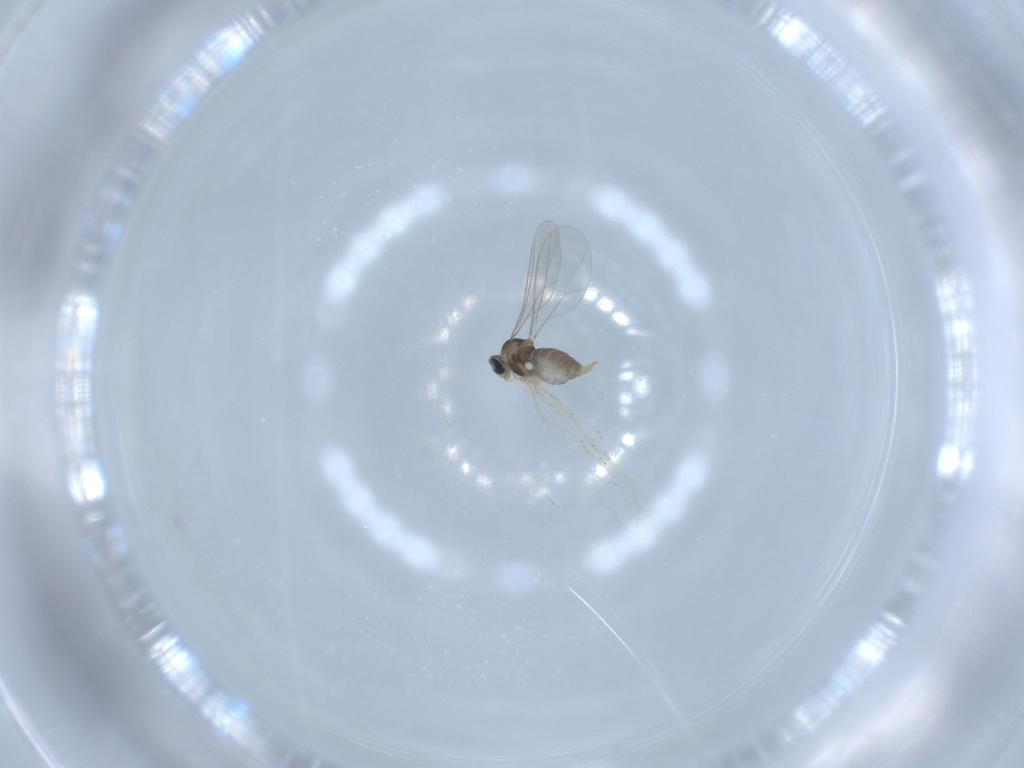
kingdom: Animalia
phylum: Arthropoda
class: Insecta
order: Diptera
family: Cecidomyiidae
